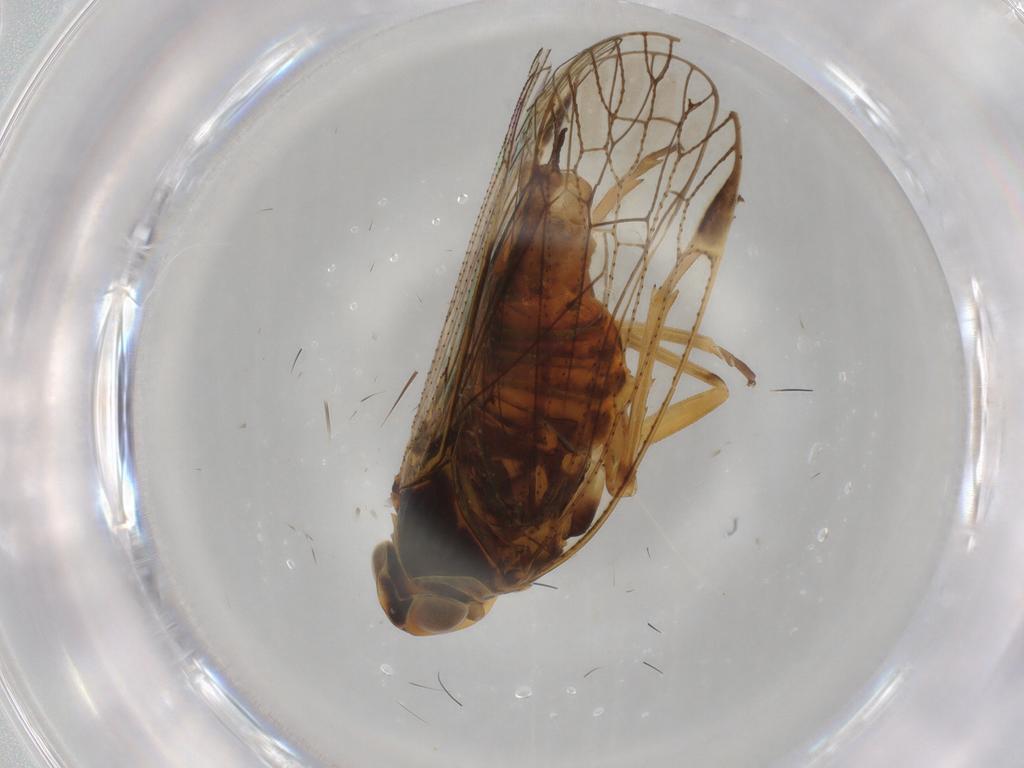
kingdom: Animalia
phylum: Arthropoda
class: Insecta
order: Hemiptera
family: Cixiidae
